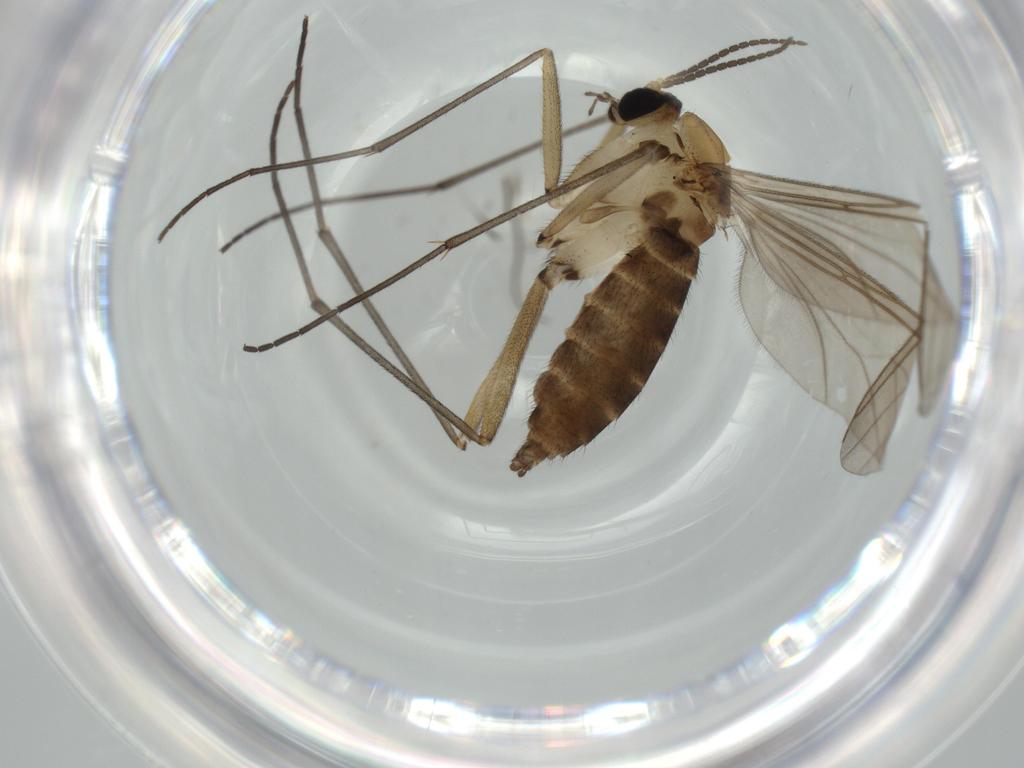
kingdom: Animalia
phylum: Arthropoda
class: Insecta
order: Diptera
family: Sciaridae
